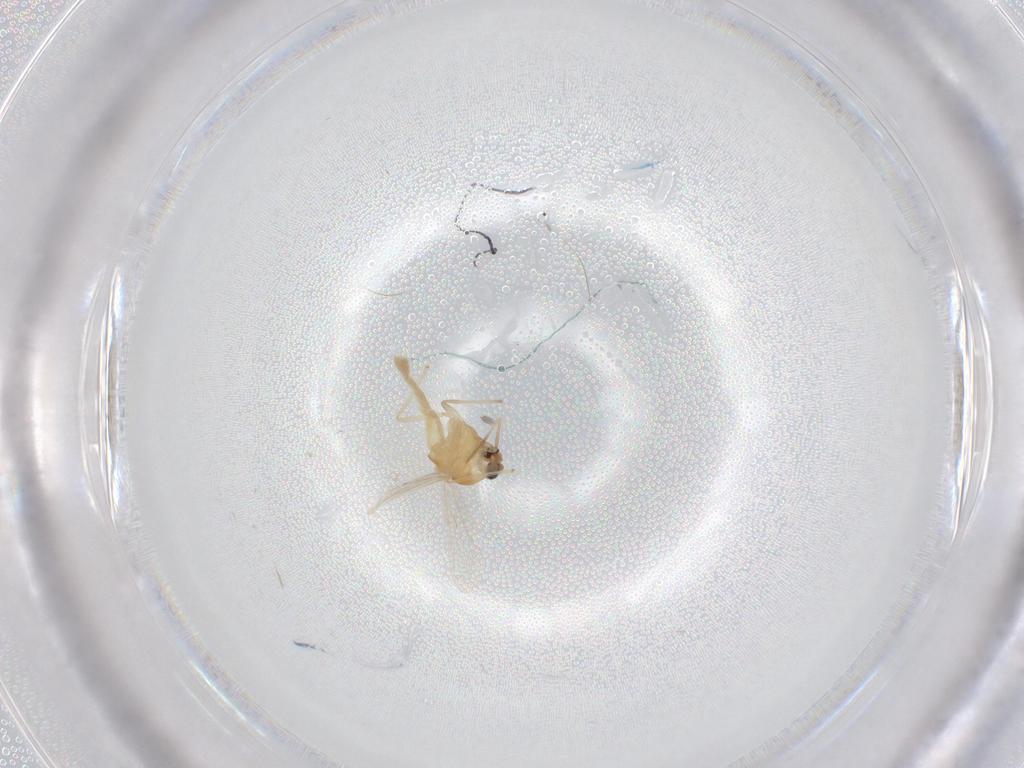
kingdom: Animalia
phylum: Arthropoda
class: Insecta
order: Diptera
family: Chironomidae
